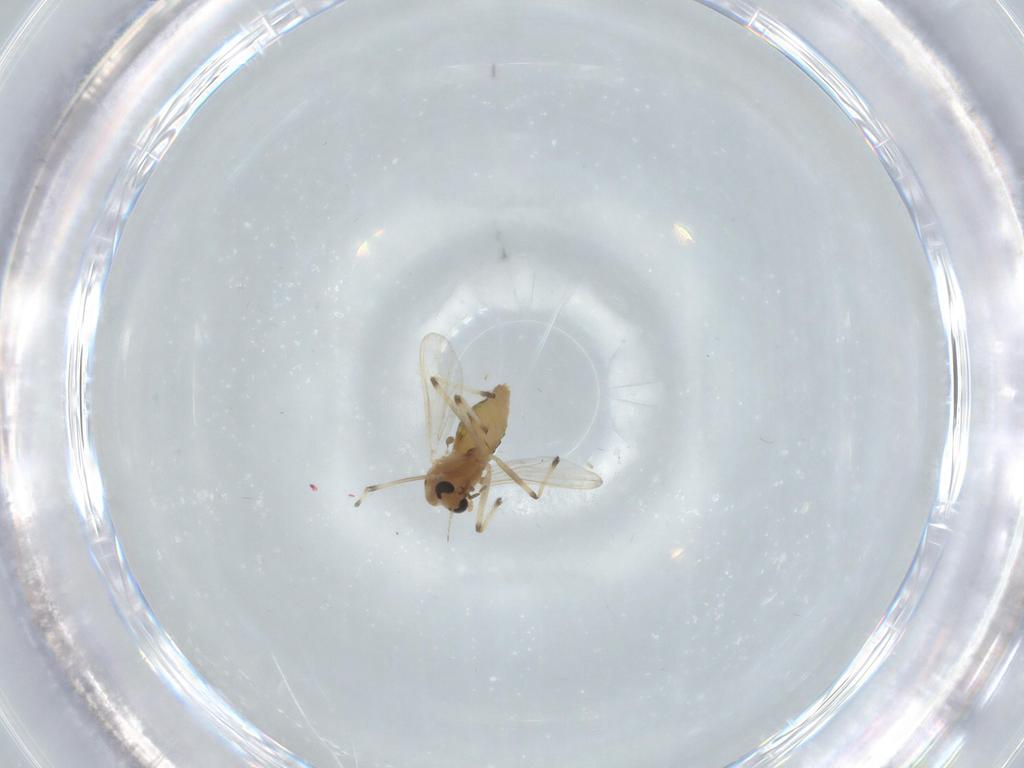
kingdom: Animalia
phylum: Arthropoda
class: Insecta
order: Diptera
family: Chironomidae
